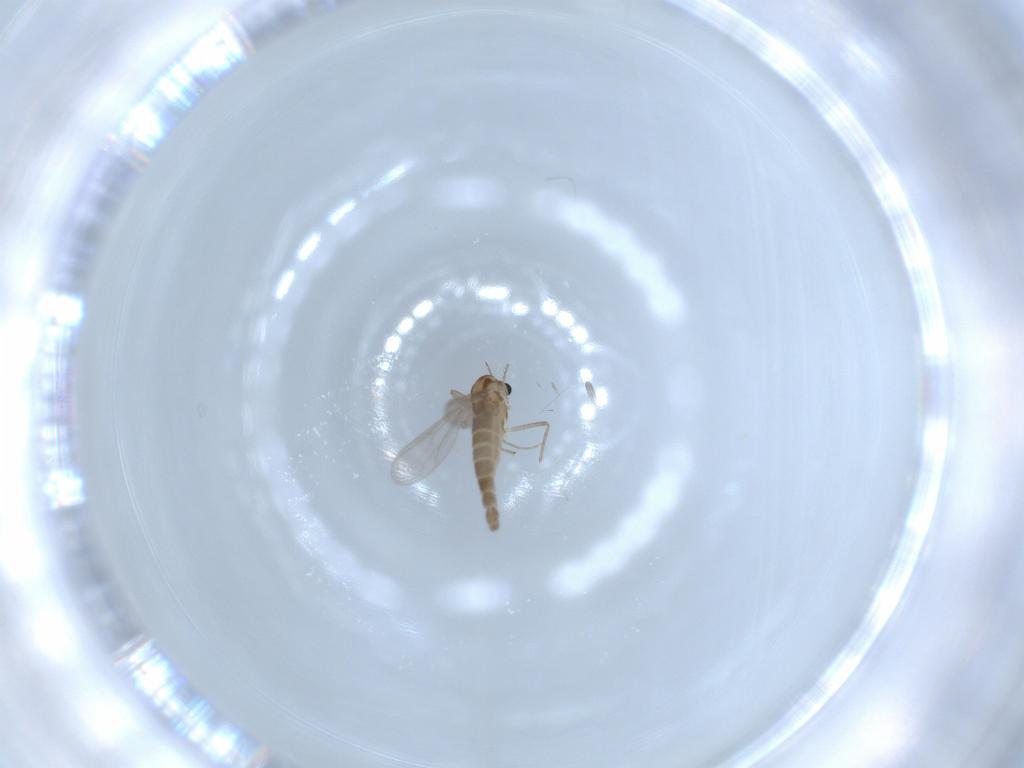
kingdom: Animalia
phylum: Arthropoda
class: Insecta
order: Diptera
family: Chironomidae
